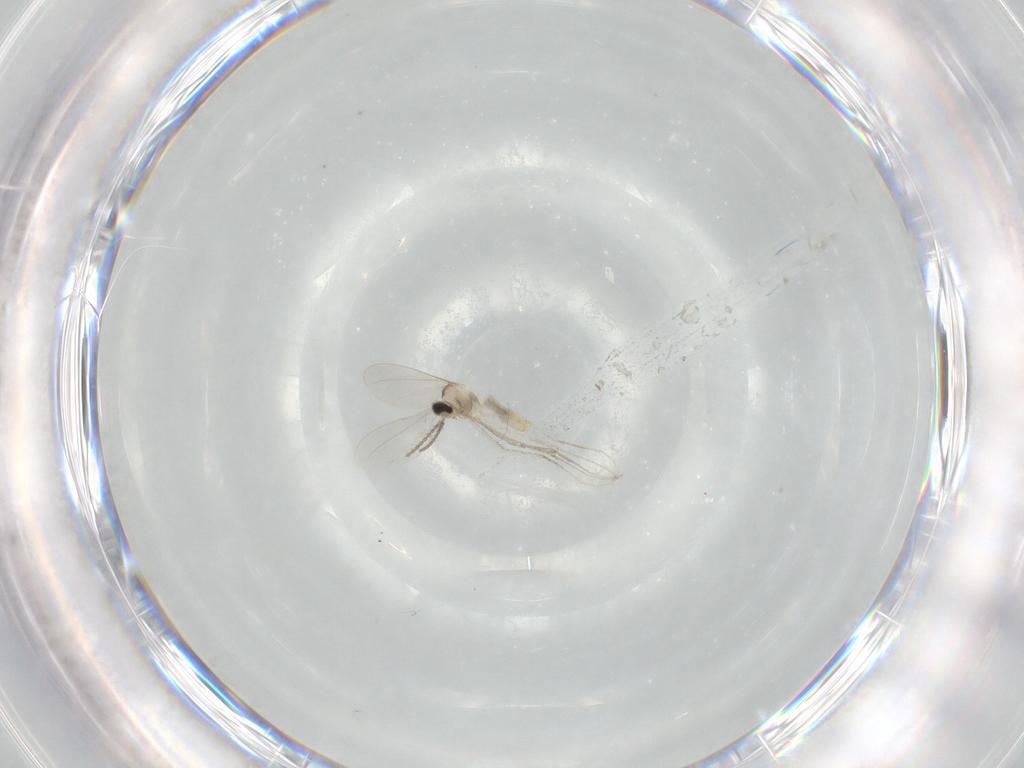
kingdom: Animalia
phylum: Arthropoda
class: Insecta
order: Diptera
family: Cecidomyiidae
